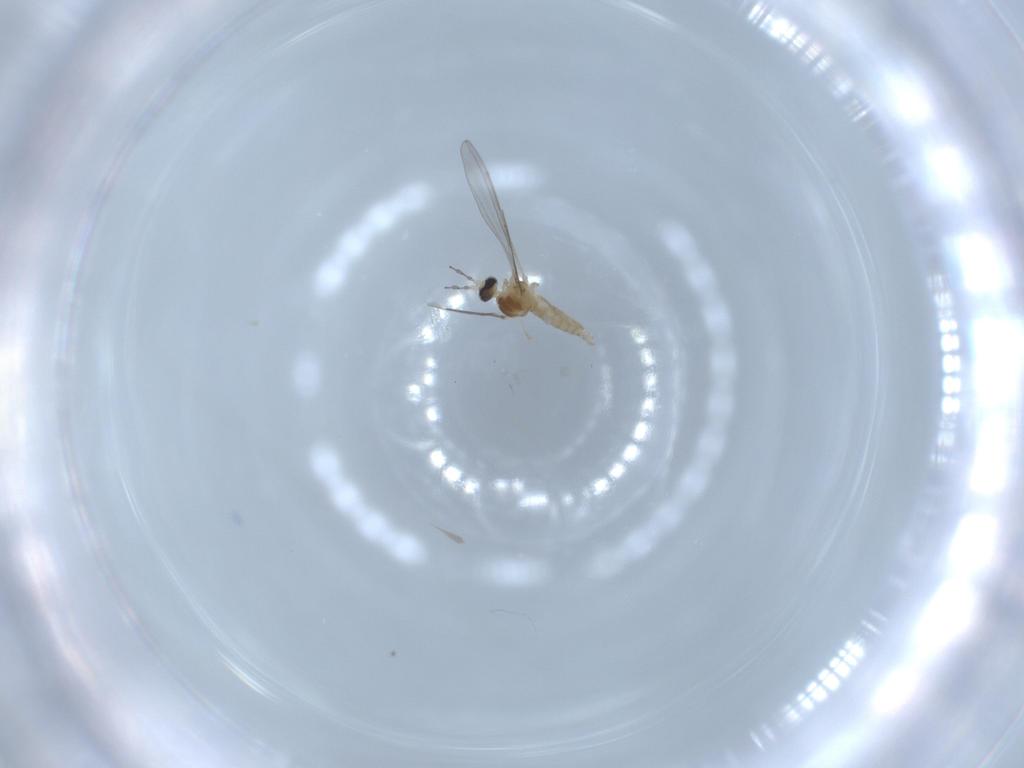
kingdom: Animalia
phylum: Arthropoda
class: Insecta
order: Diptera
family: Cecidomyiidae
